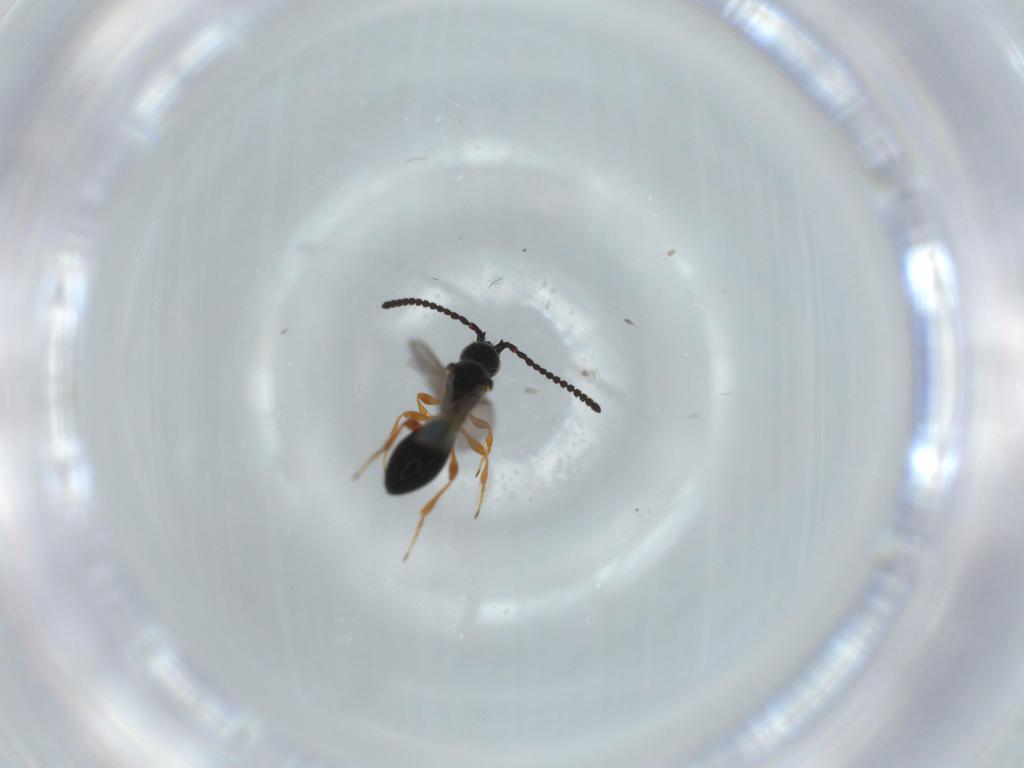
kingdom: Animalia
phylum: Arthropoda
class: Insecta
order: Hymenoptera
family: Diapriidae
